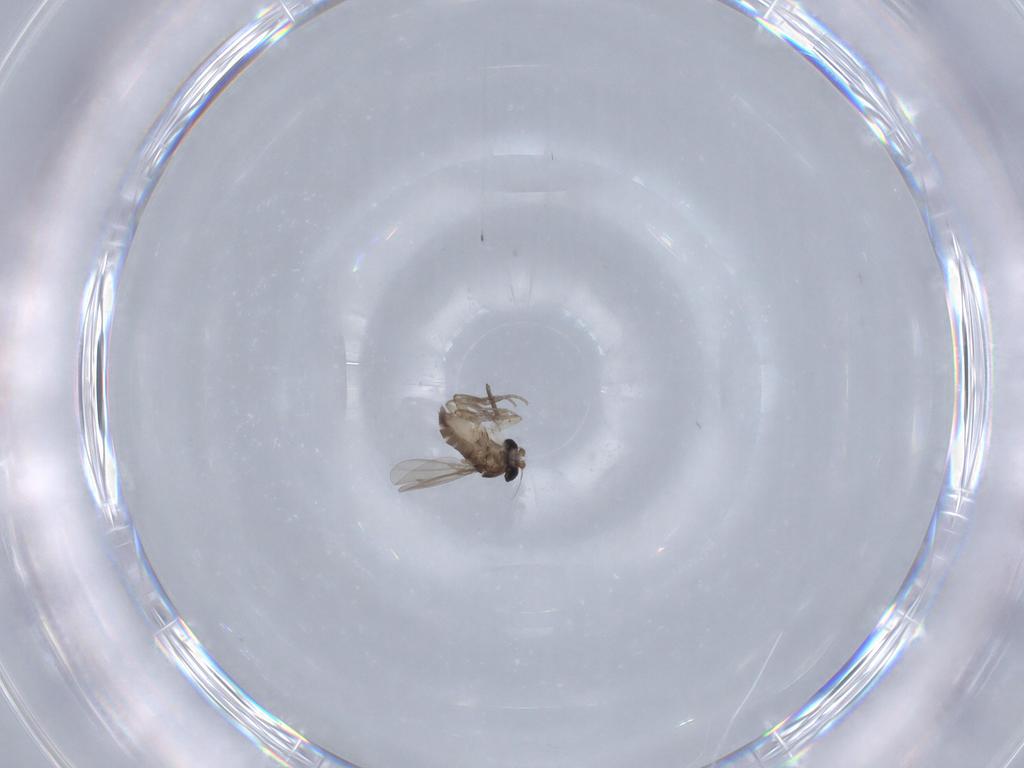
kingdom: Animalia
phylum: Arthropoda
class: Insecta
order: Diptera
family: Phoridae
